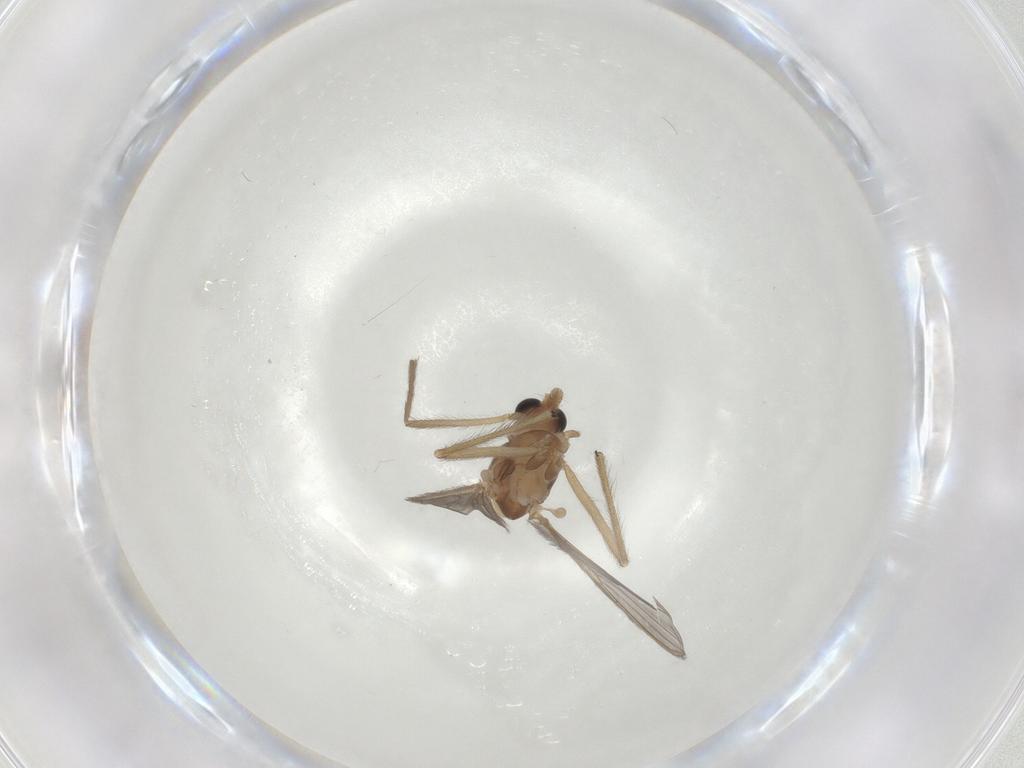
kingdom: Animalia
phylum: Arthropoda
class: Insecta
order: Diptera
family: Chironomidae
